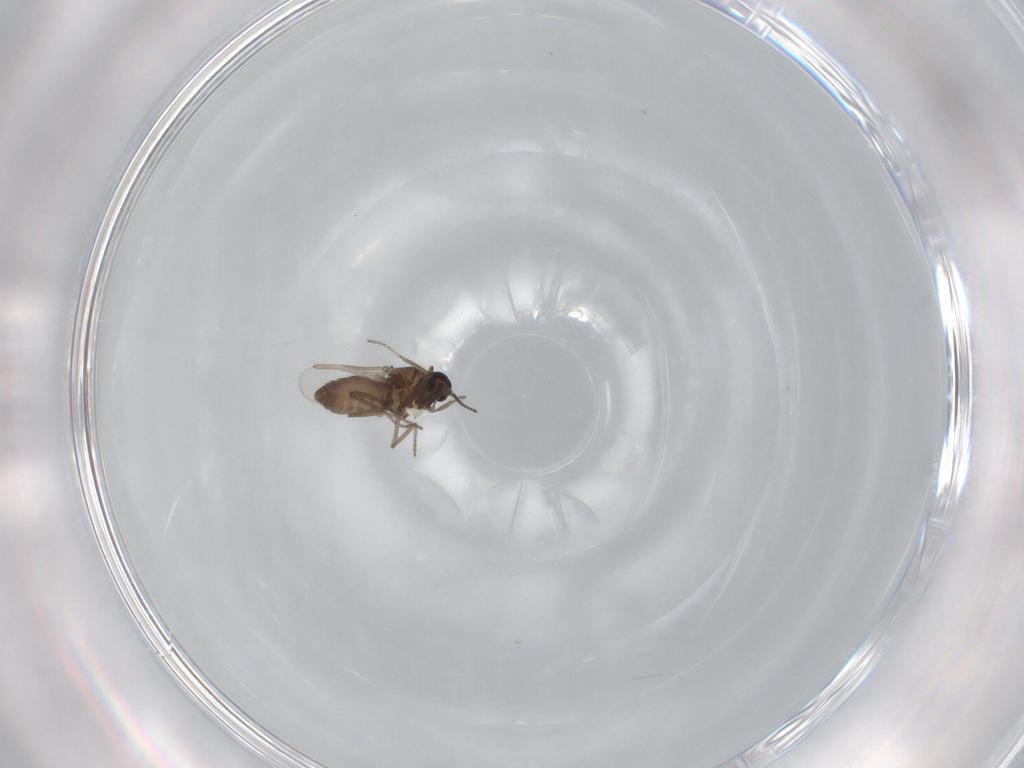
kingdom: Animalia
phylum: Arthropoda
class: Insecta
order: Diptera
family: Ceratopogonidae
